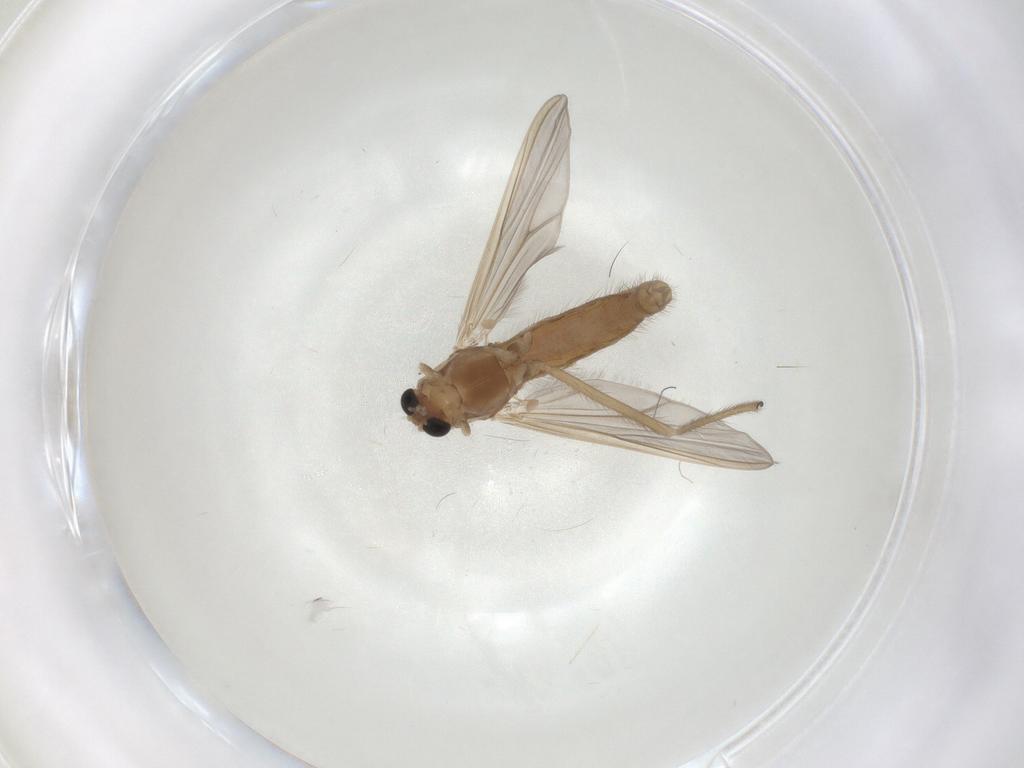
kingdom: Animalia
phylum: Arthropoda
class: Insecta
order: Diptera
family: Chironomidae
